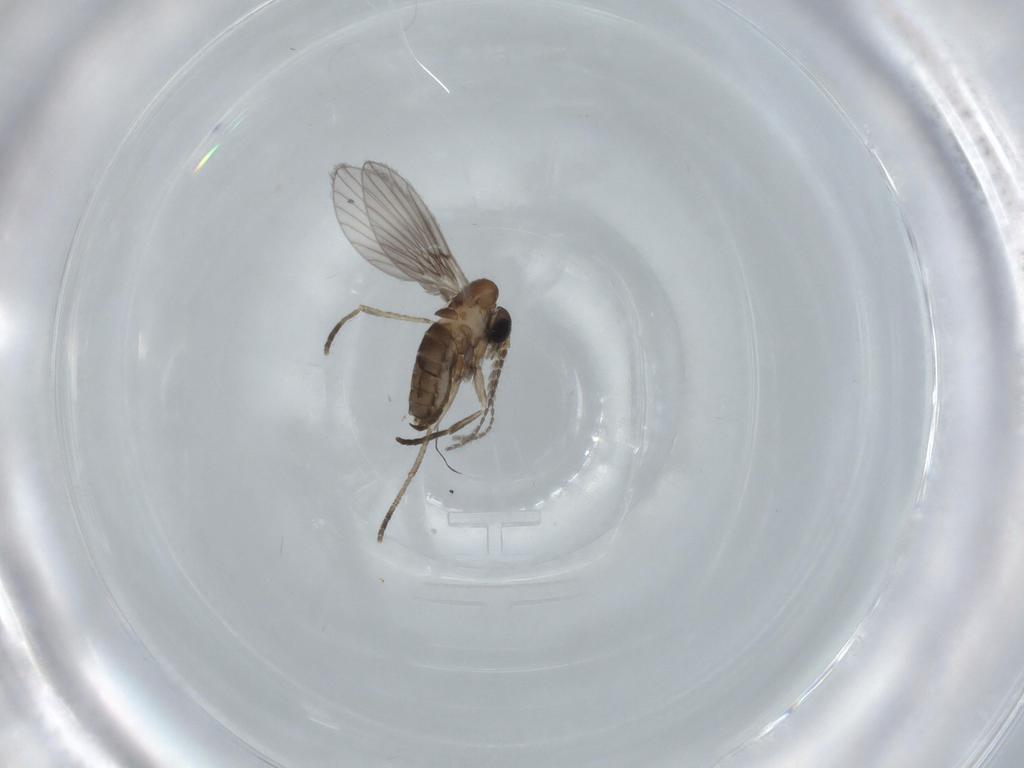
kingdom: Animalia
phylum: Arthropoda
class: Insecta
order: Diptera
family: Psychodidae
